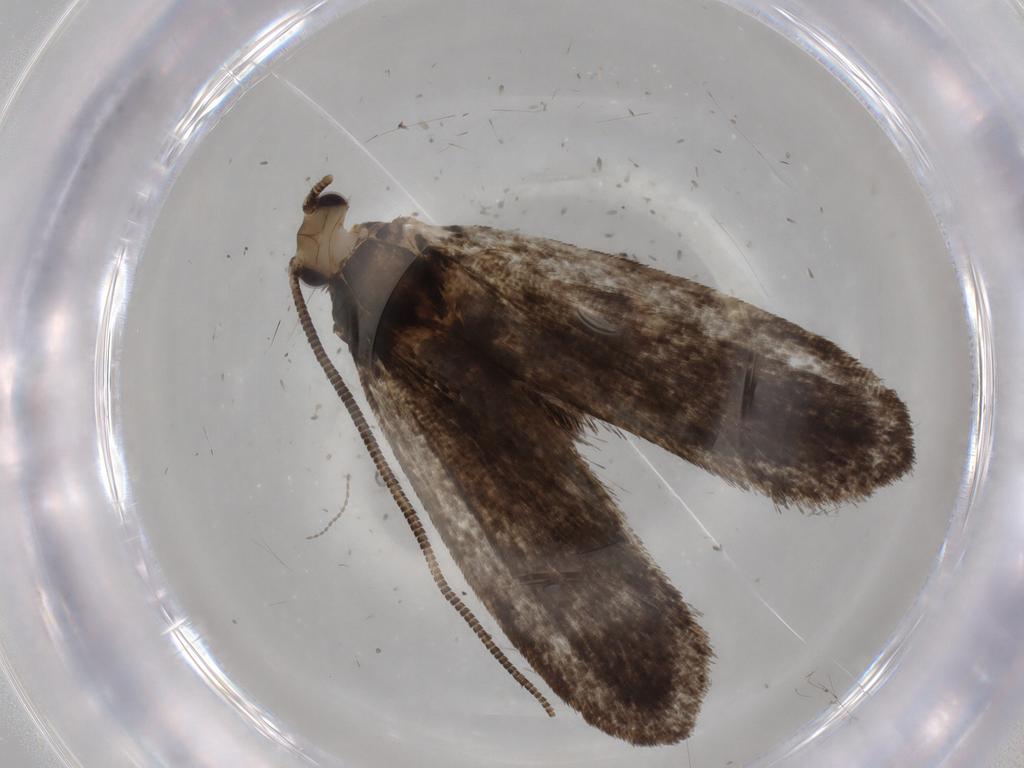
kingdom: Animalia
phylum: Arthropoda
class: Insecta
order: Lepidoptera
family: Tineidae
